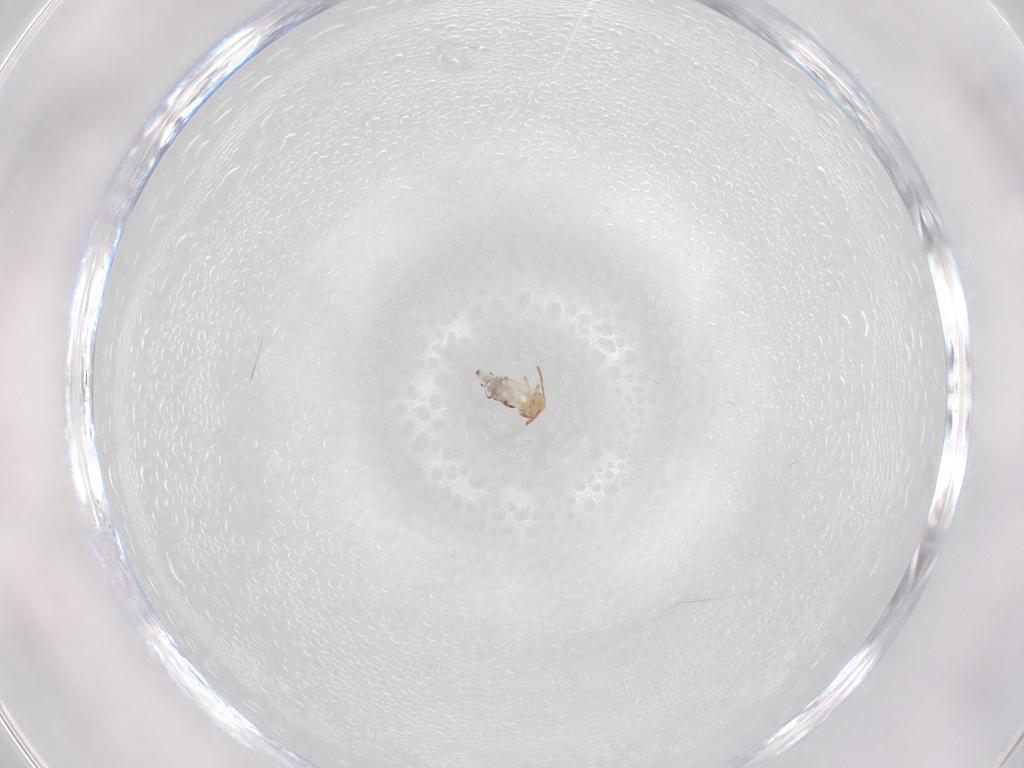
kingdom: Animalia
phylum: Arthropoda
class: Collembola
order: Symphypleona
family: Bourletiellidae
